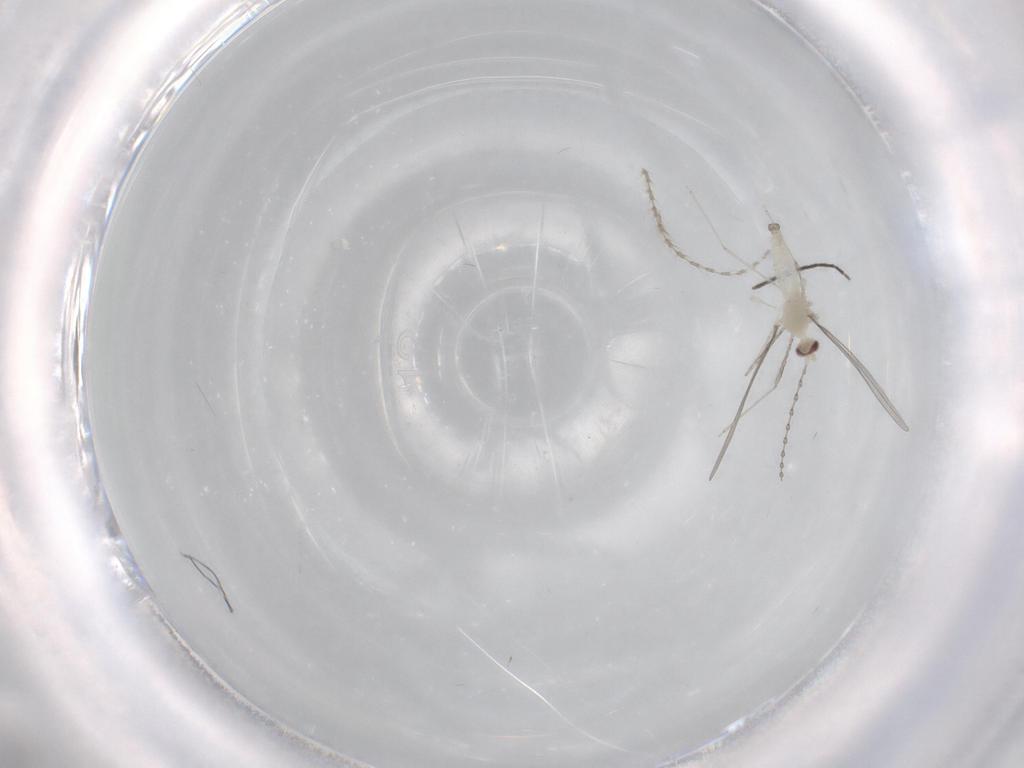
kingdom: Animalia
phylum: Arthropoda
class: Insecta
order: Diptera
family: Cecidomyiidae
